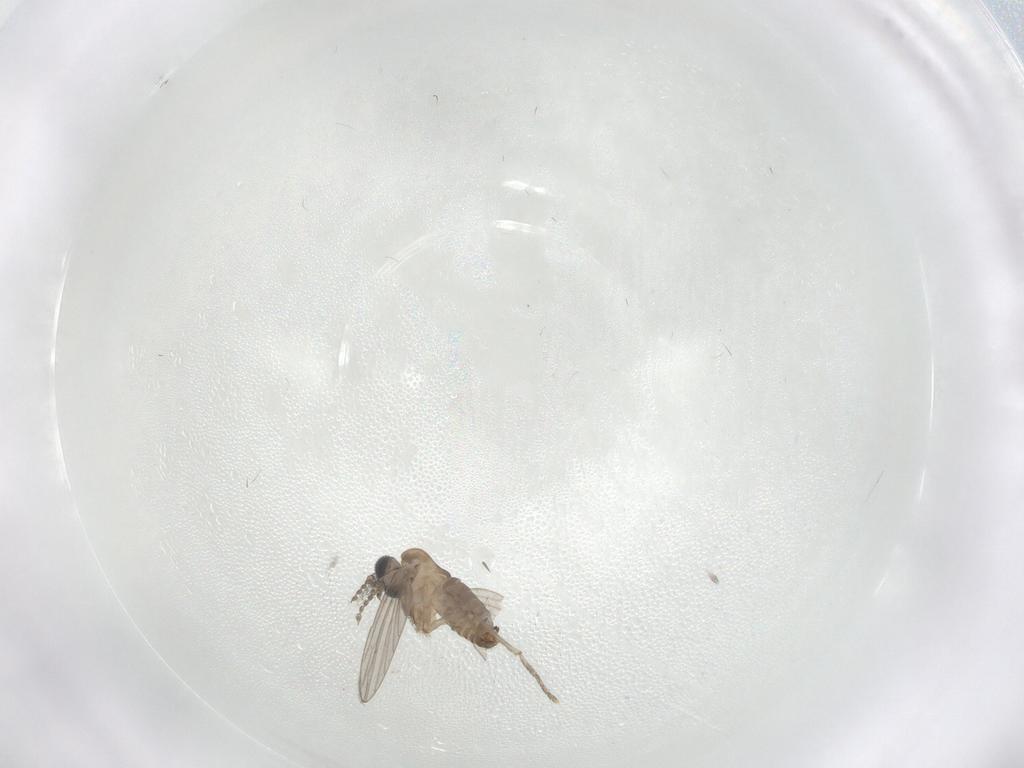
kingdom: Animalia
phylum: Arthropoda
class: Insecta
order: Diptera
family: Psychodidae
